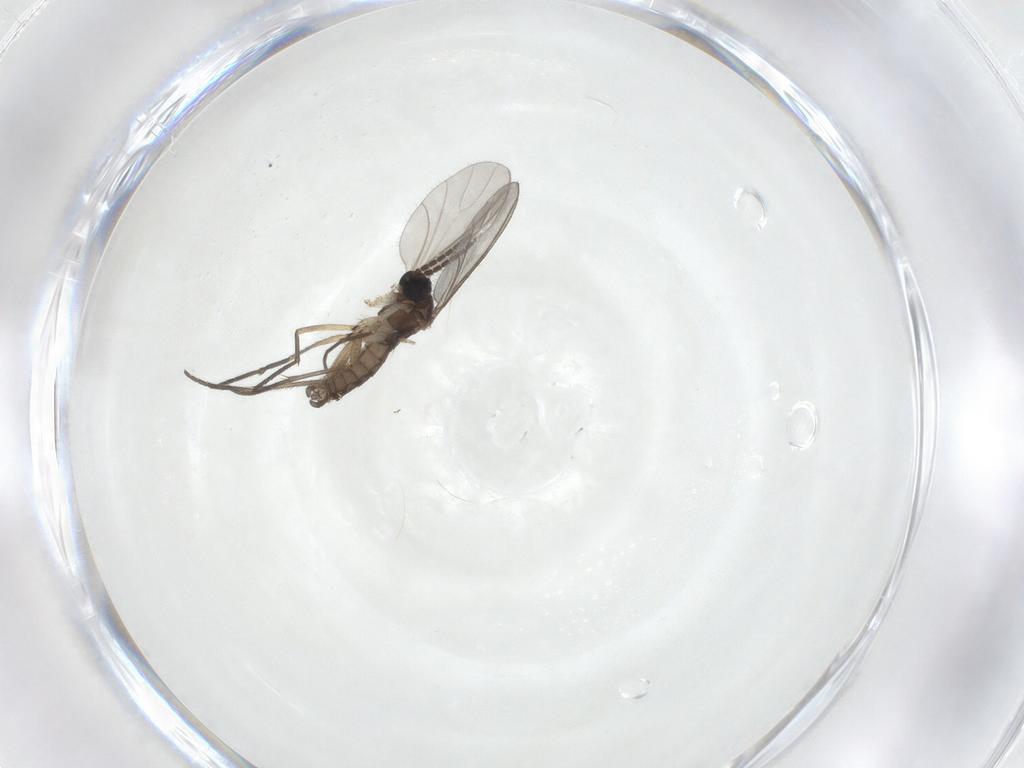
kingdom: Animalia
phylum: Arthropoda
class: Insecta
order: Diptera
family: Sciaridae
